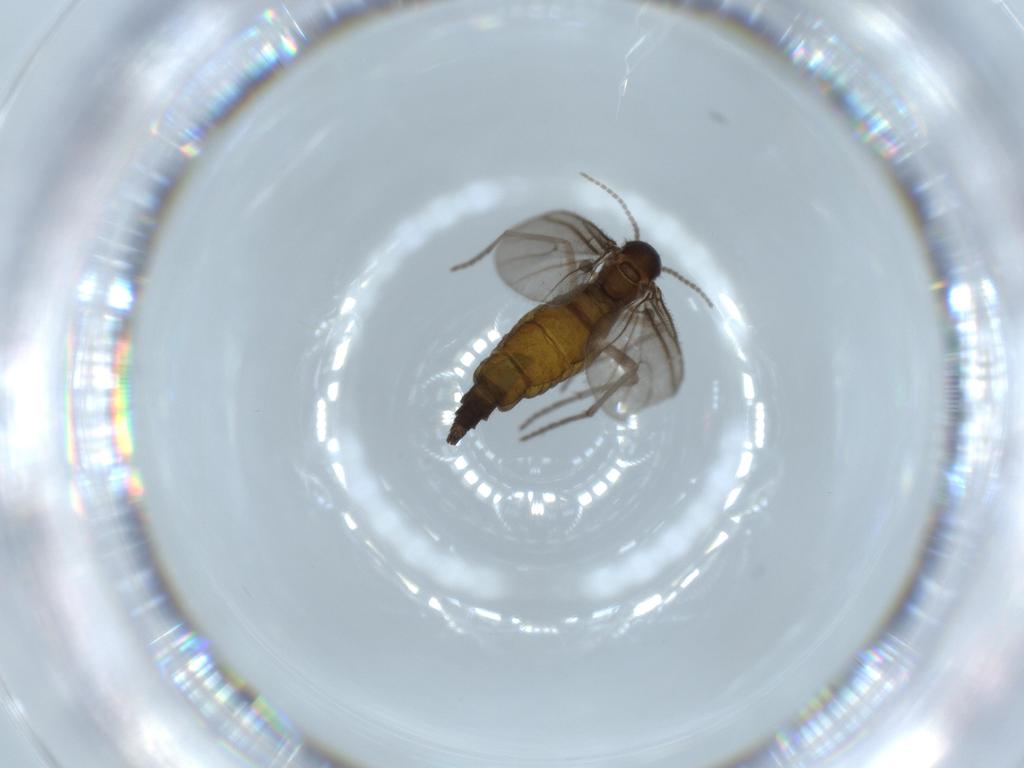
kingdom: Animalia
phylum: Arthropoda
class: Insecta
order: Diptera
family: Sciaridae
